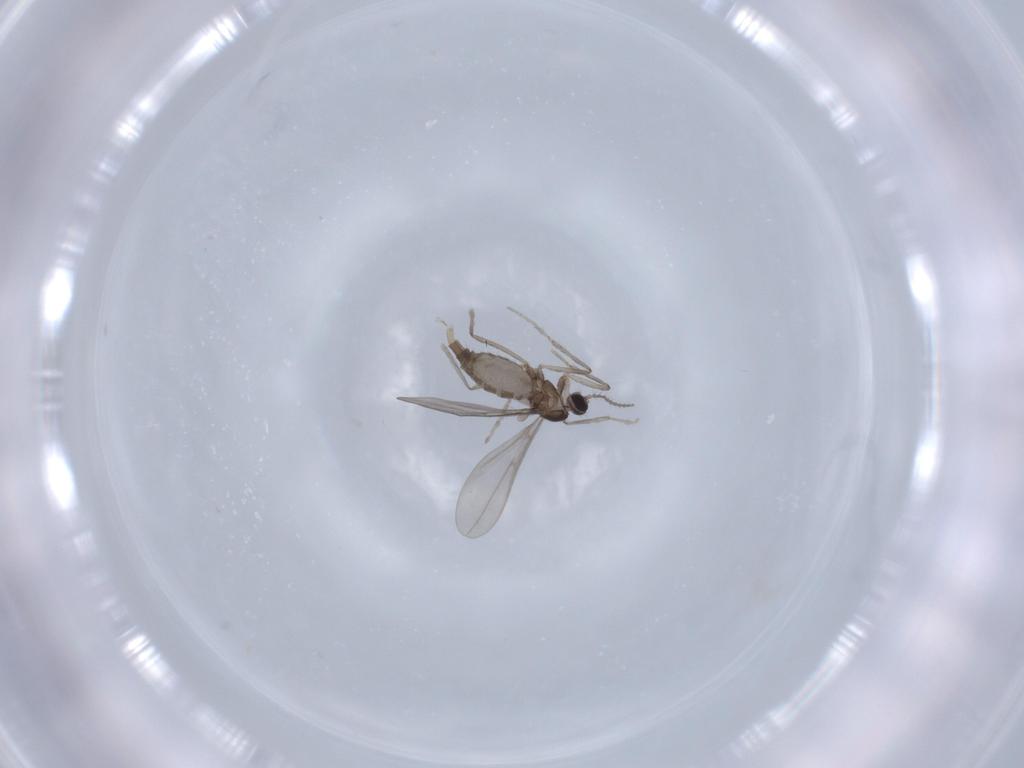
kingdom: Animalia
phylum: Arthropoda
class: Insecta
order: Diptera
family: Cecidomyiidae
